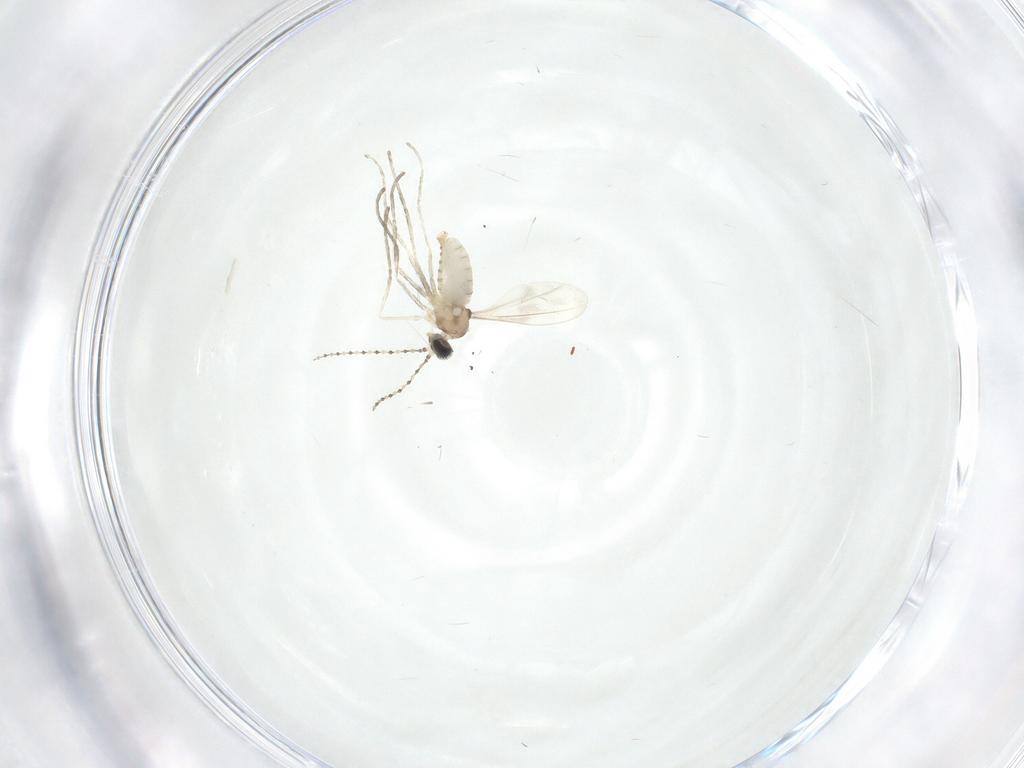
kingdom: Animalia
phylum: Arthropoda
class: Insecta
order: Diptera
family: Cecidomyiidae
